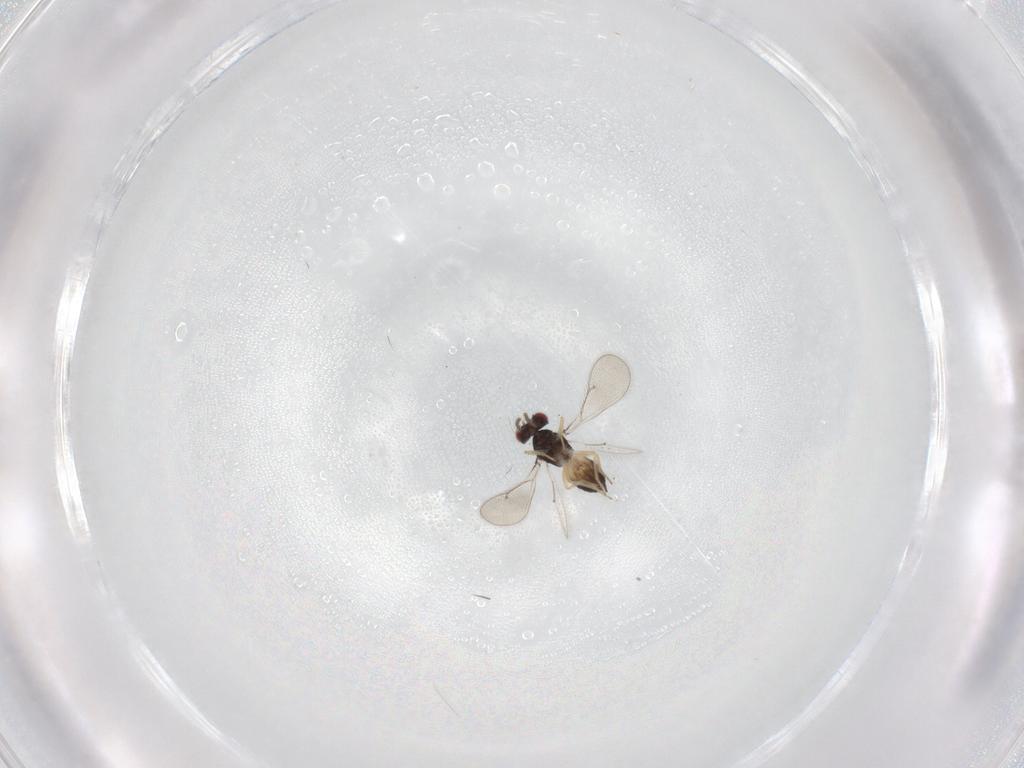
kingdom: Animalia
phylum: Arthropoda
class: Insecta
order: Hymenoptera
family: Eulophidae
